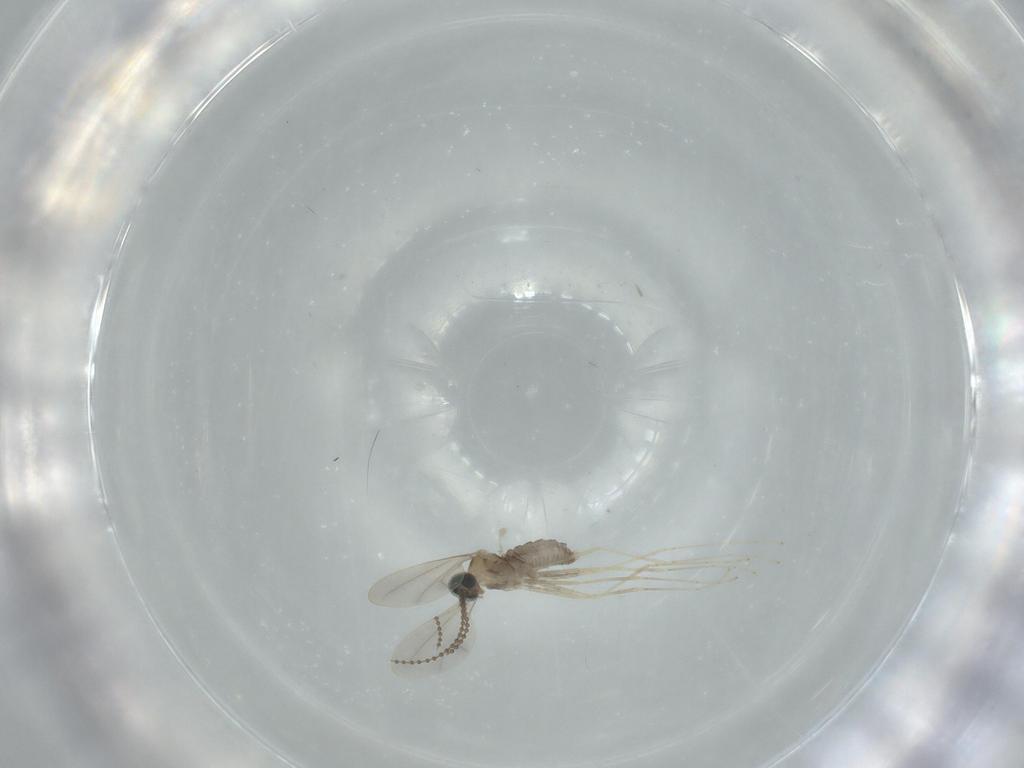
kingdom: Animalia
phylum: Arthropoda
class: Insecta
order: Diptera
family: Cecidomyiidae
